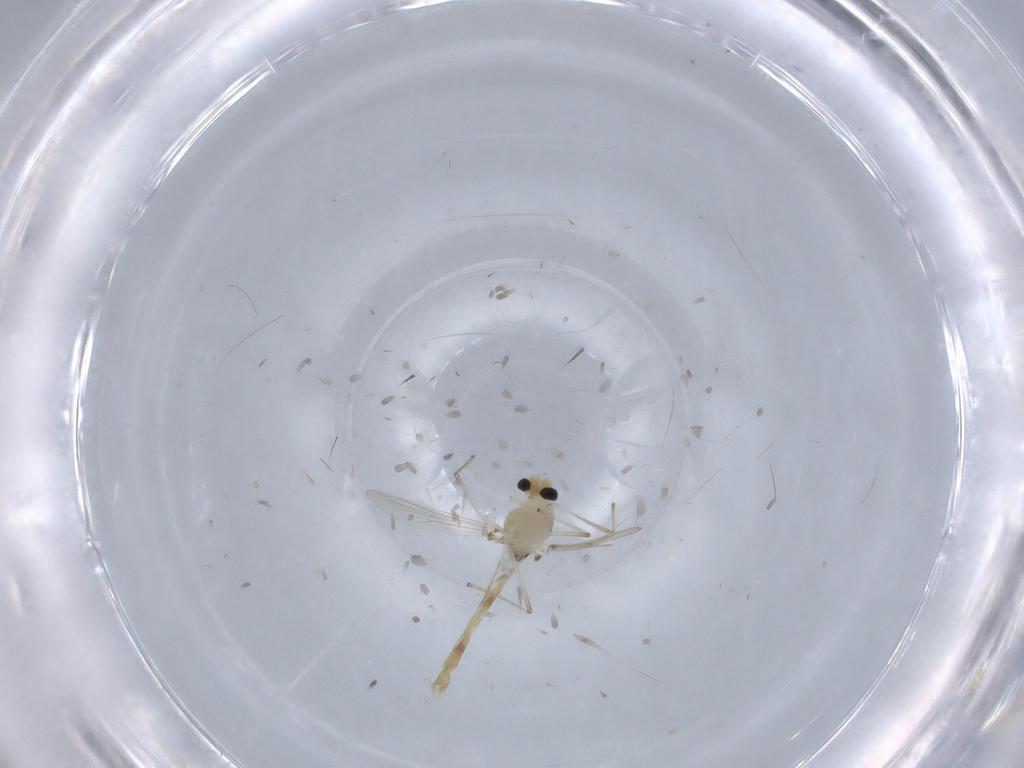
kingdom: Animalia
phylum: Arthropoda
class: Insecta
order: Diptera
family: Chironomidae
